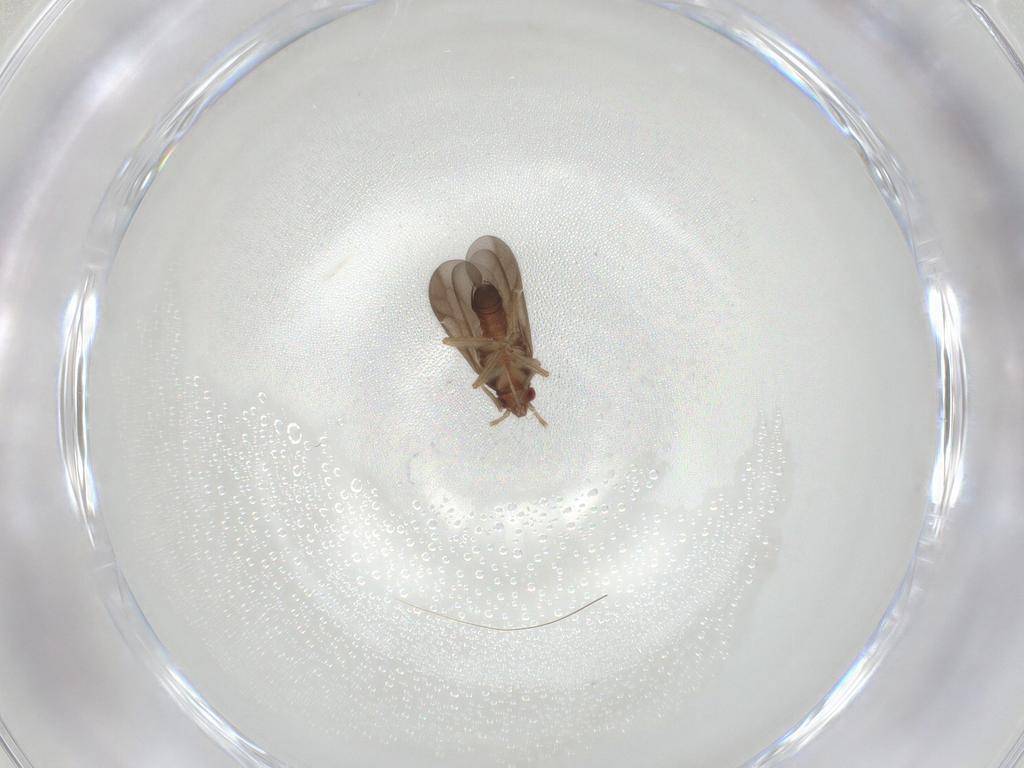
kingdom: Animalia
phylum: Arthropoda
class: Insecta
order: Hemiptera
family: Ceratocombidae
